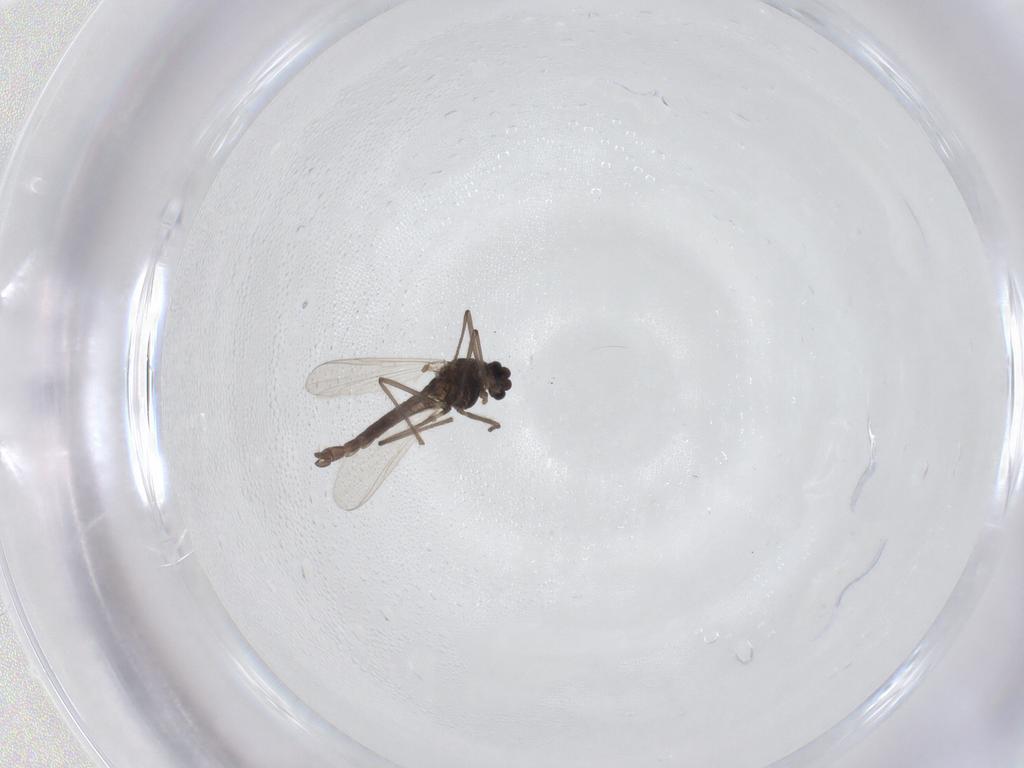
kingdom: Animalia
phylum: Arthropoda
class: Insecta
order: Diptera
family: Chironomidae
